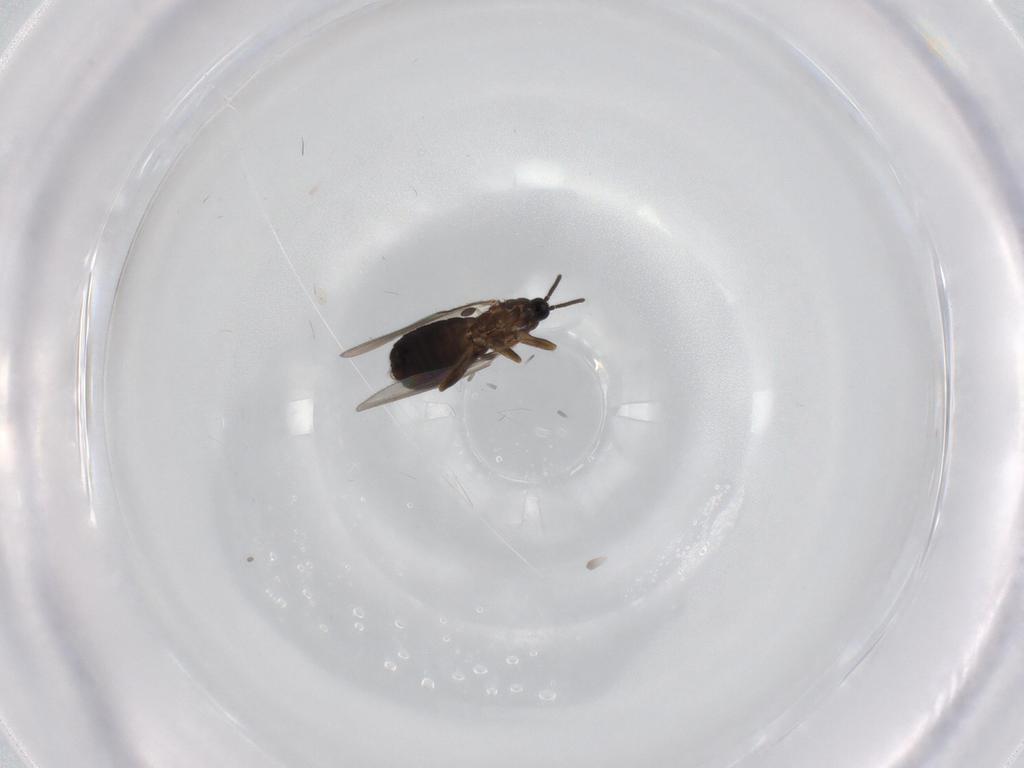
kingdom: Animalia
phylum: Arthropoda
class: Insecta
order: Diptera
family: Scatopsidae
